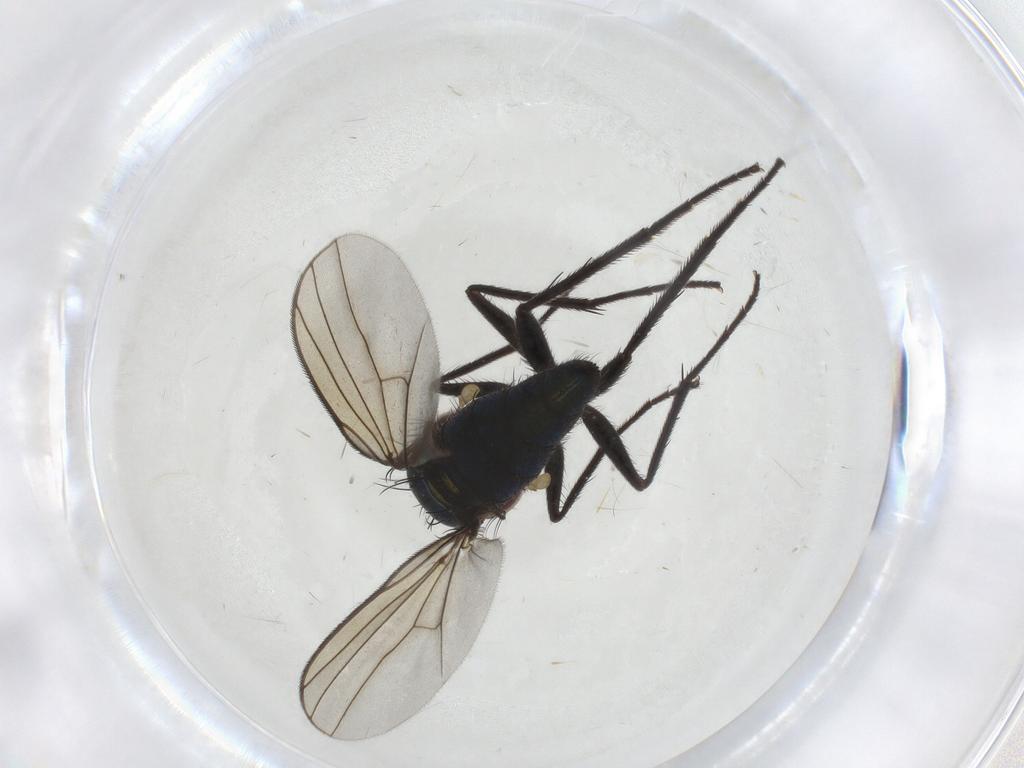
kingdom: Animalia
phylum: Arthropoda
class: Insecta
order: Diptera
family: Dolichopodidae
